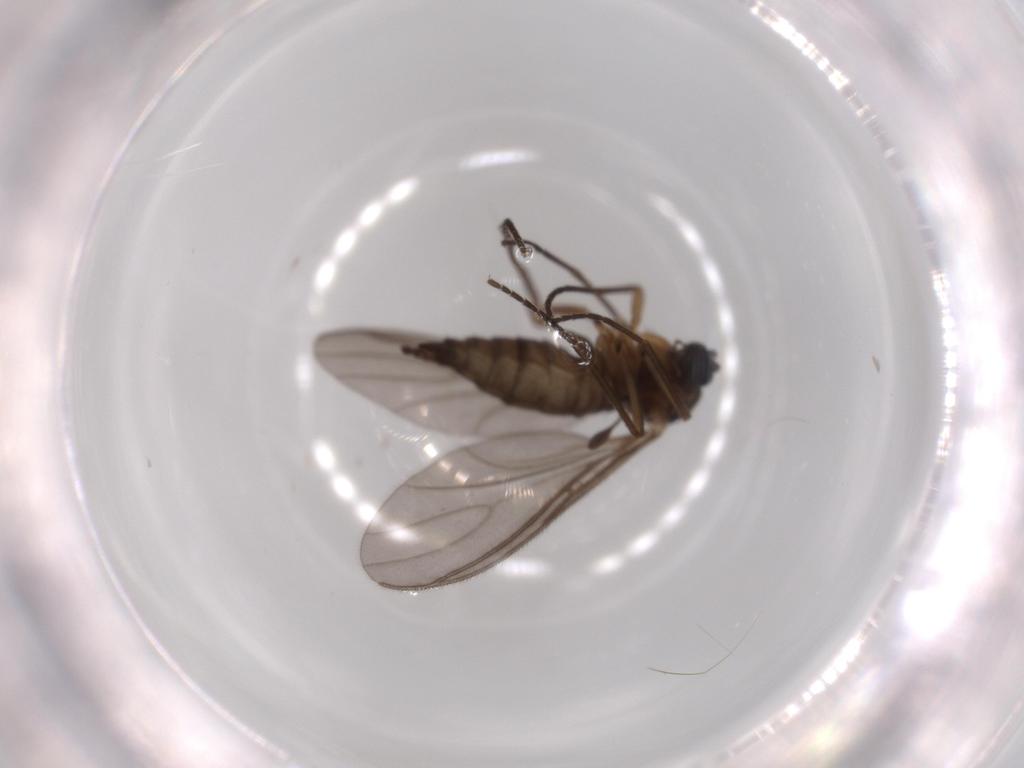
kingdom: Animalia
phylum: Arthropoda
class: Insecta
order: Diptera
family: Sciaridae
